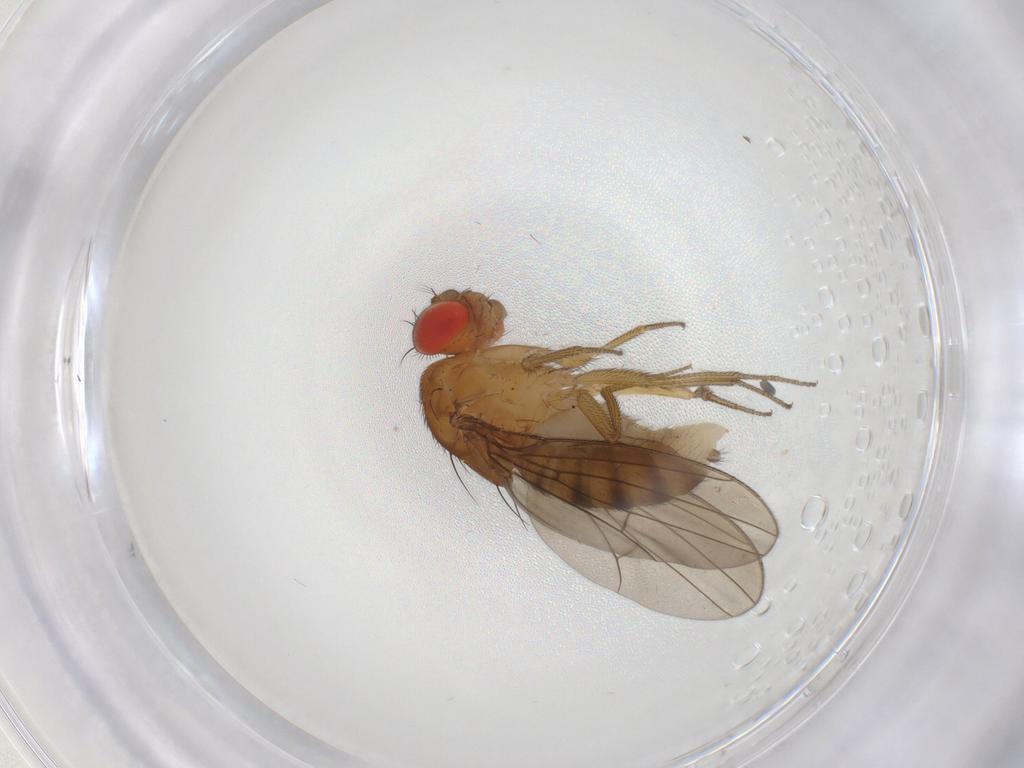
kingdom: Animalia
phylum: Arthropoda
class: Insecta
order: Diptera
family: Drosophilidae
